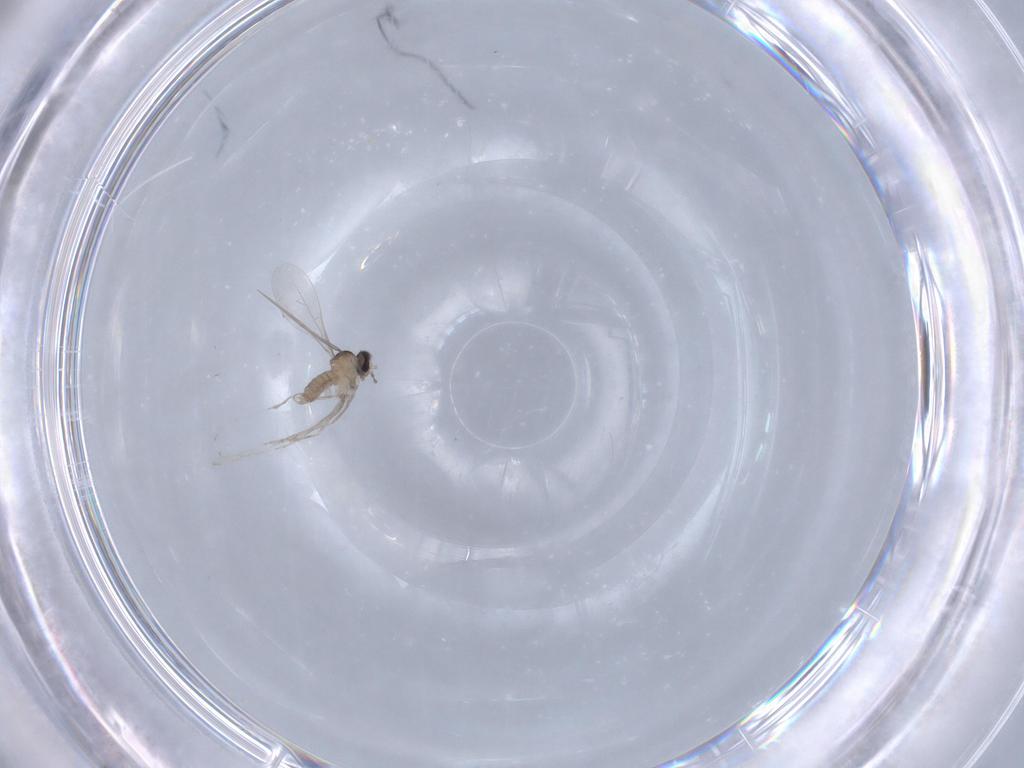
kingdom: Animalia
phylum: Arthropoda
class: Insecta
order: Diptera
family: Cecidomyiidae
